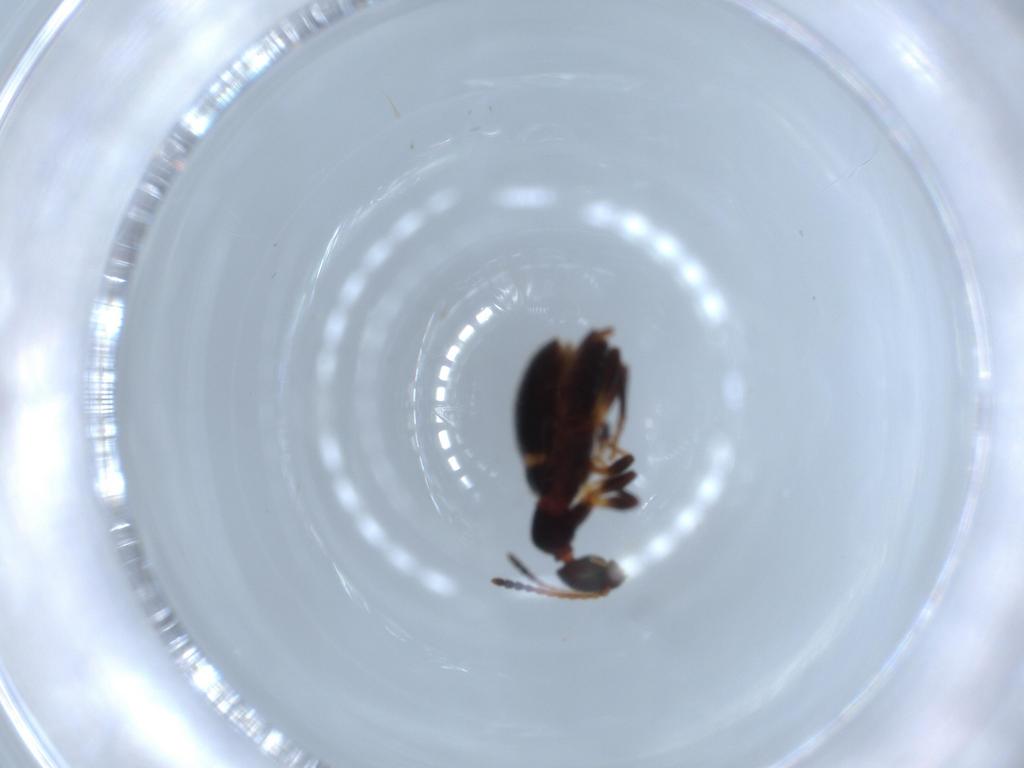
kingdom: Animalia
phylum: Arthropoda
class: Insecta
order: Coleoptera
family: Anthicidae
